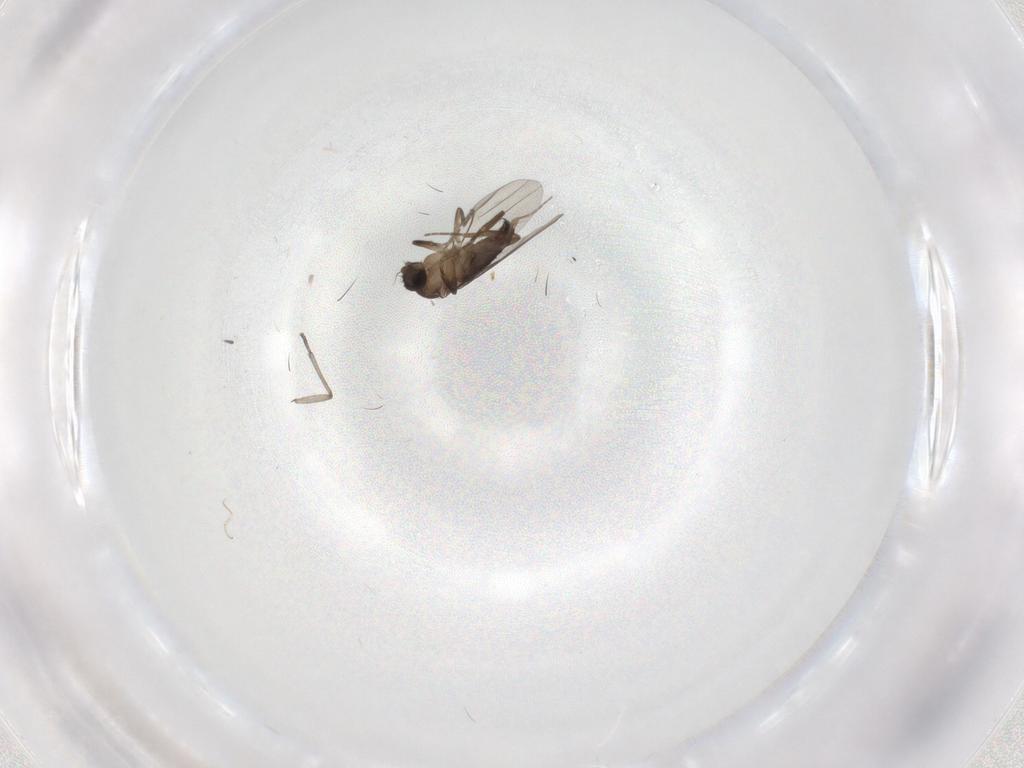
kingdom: Animalia
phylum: Arthropoda
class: Insecta
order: Diptera
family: Sciaridae
